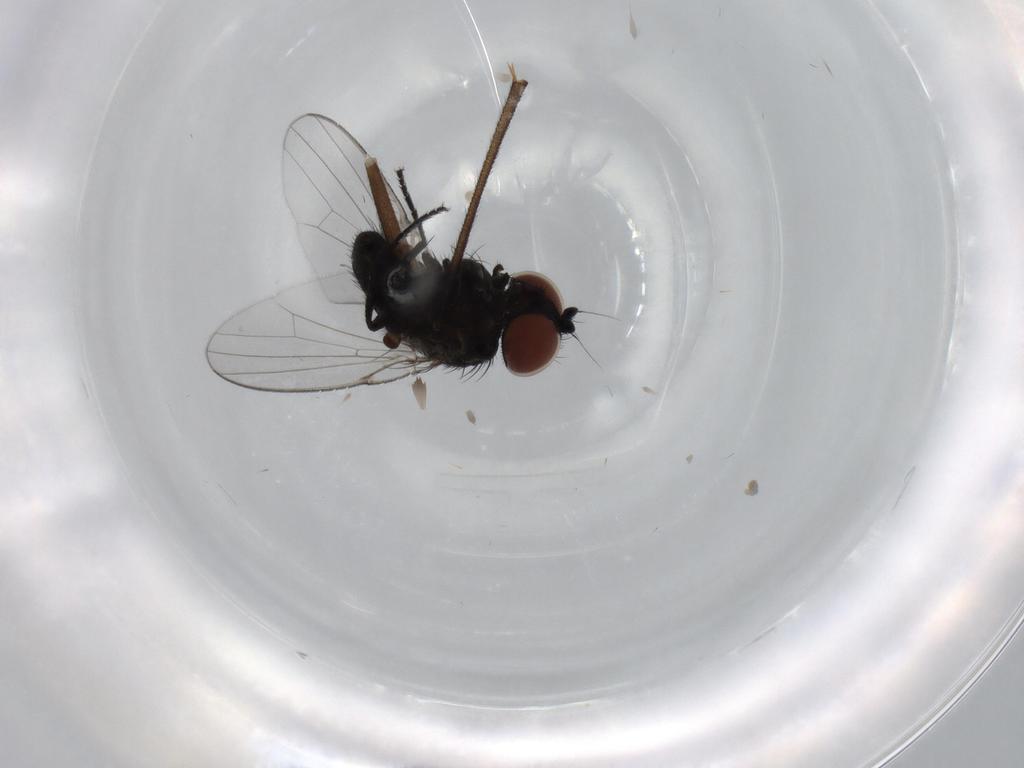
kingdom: Animalia
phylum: Arthropoda
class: Insecta
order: Diptera
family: Milichiidae
